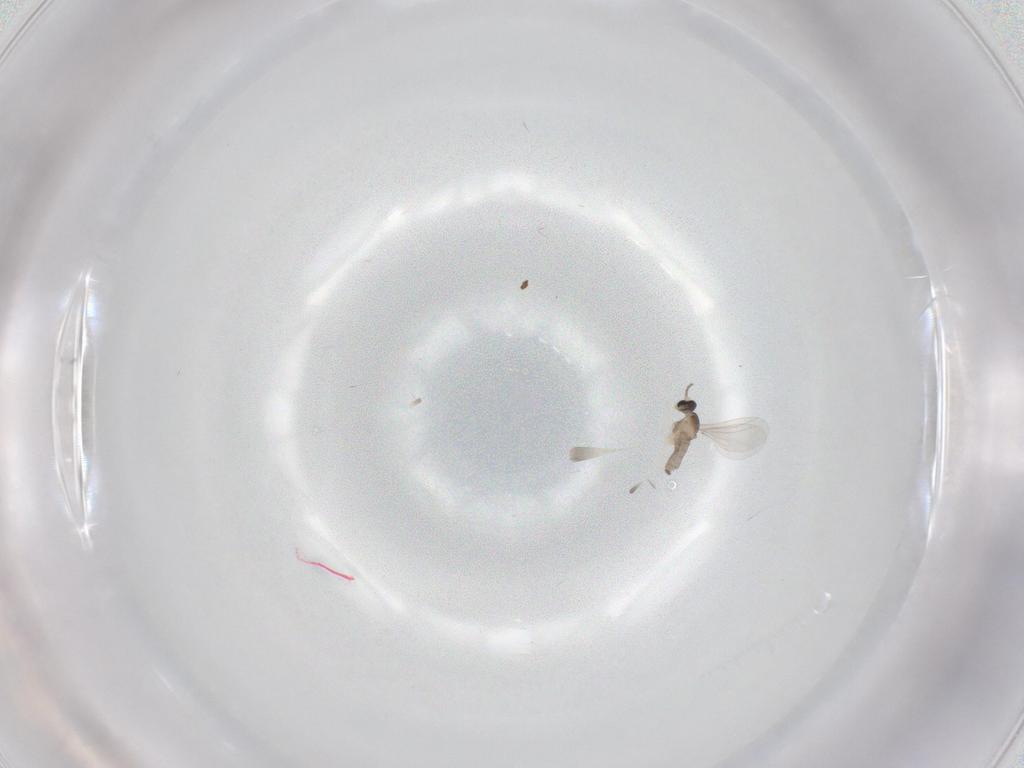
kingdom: Animalia
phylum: Arthropoda
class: Insecta
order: Diptera
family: Cecidomyiidae
